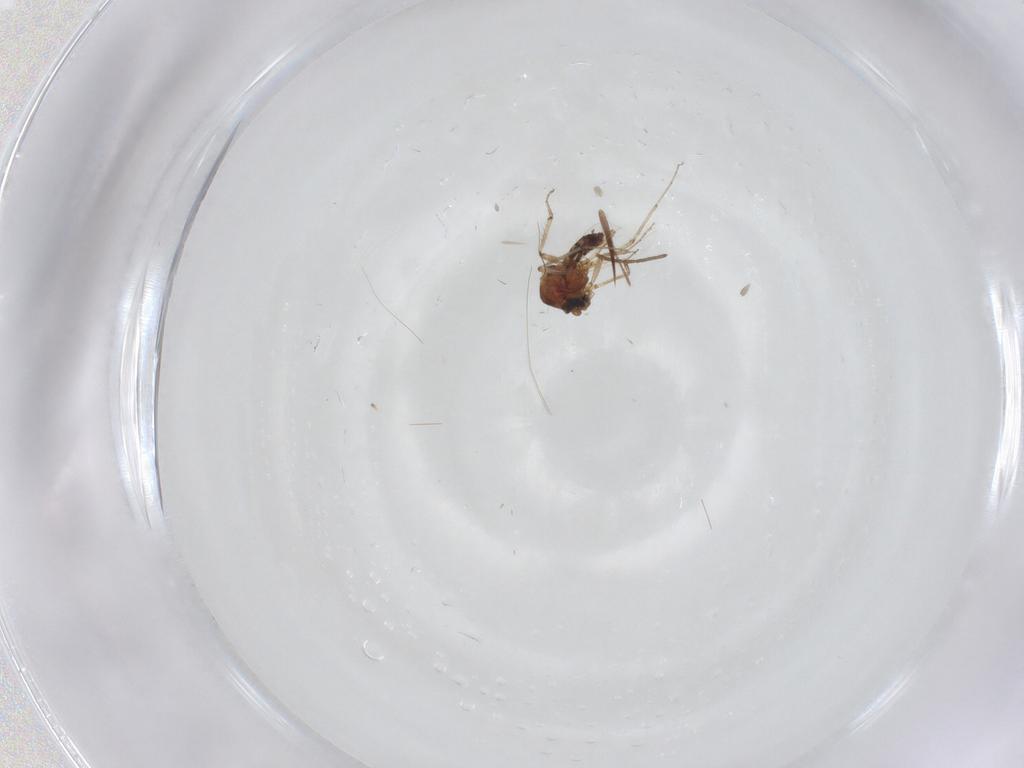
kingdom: Animalia
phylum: Arthropoda
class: Insecta
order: Diptera
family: Ceratopogonidae
